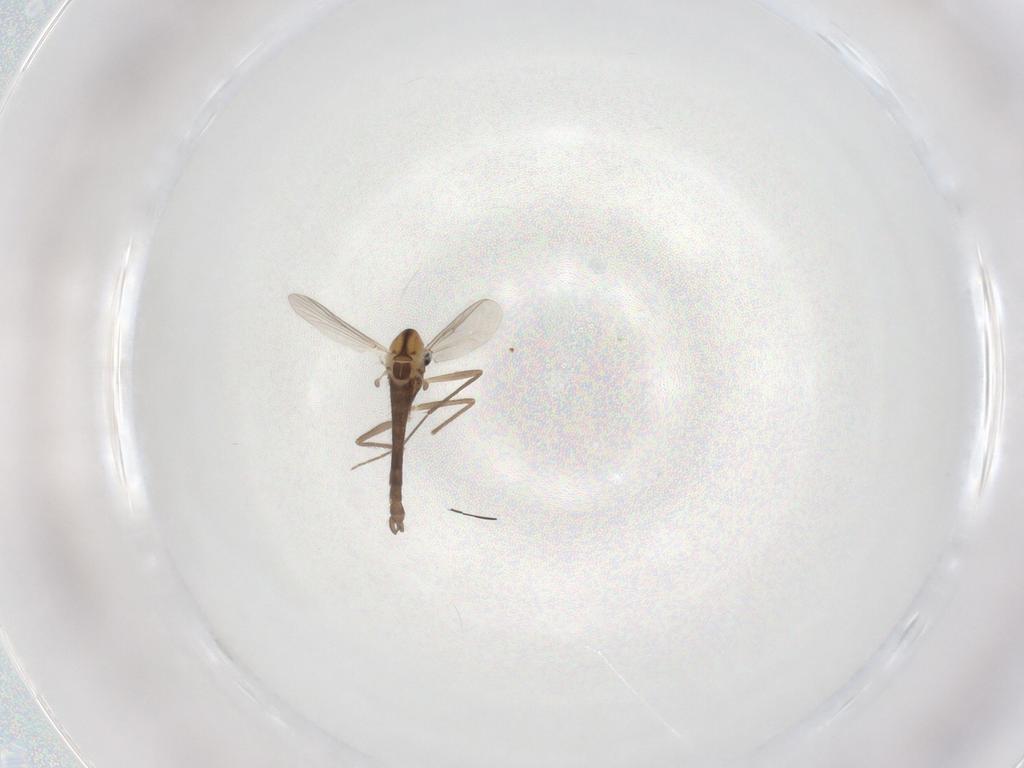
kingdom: Animalia
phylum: Arthropoda
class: Insecta
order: Diptera
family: Chironomidae
